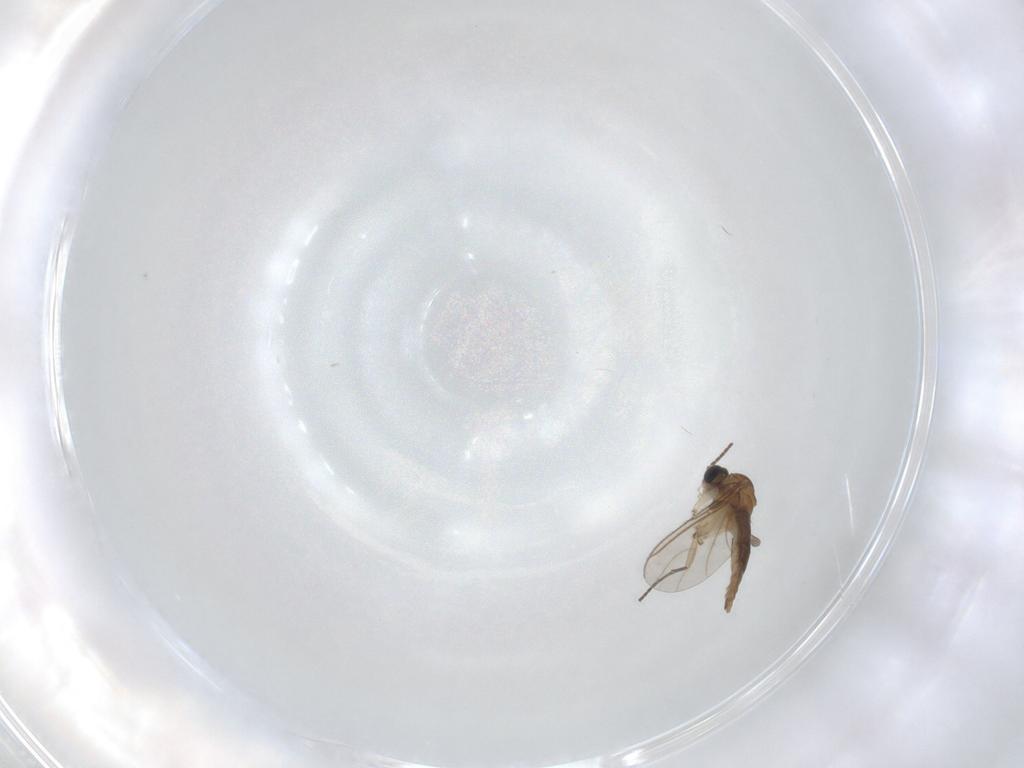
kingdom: Animalia
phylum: Arthropoda
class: Insecta
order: Diptera
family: Sciaridae
